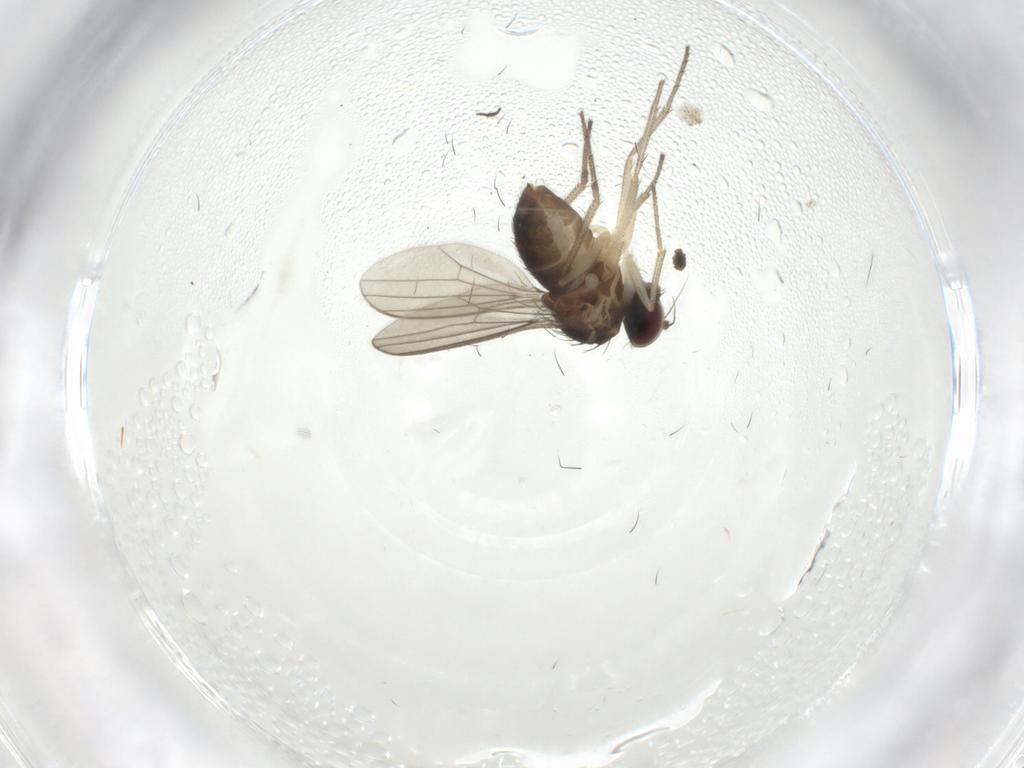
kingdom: Animalia
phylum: Arthropoda
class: Insecta
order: Diptera
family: Dolichopodidae
